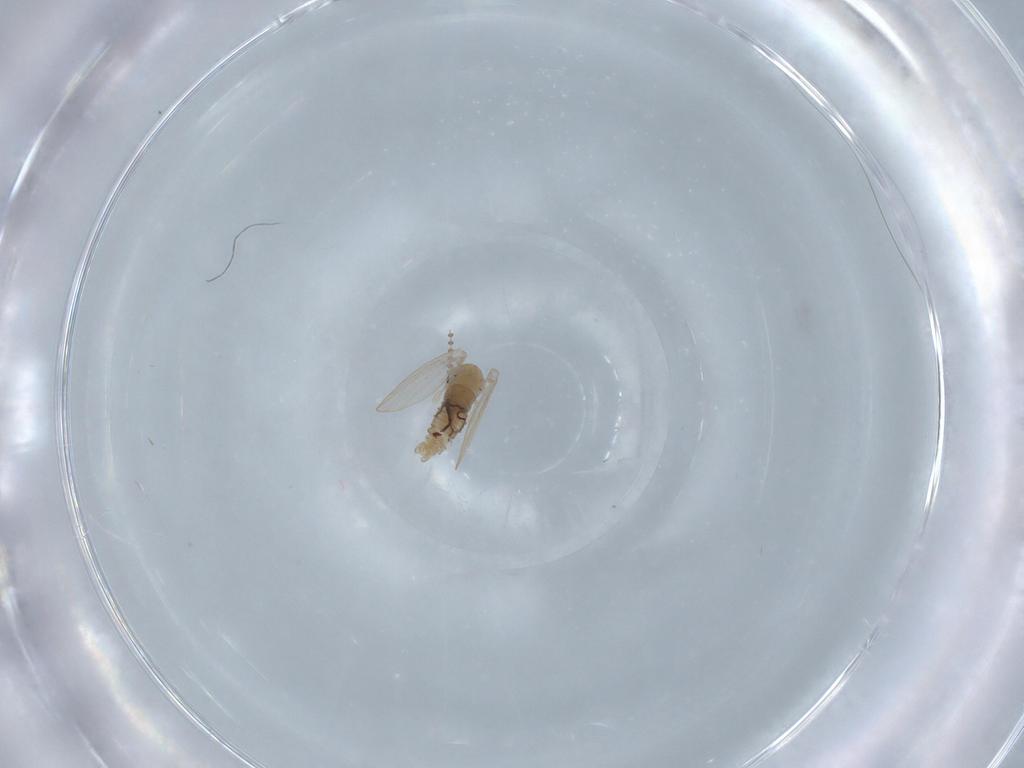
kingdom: Animalia
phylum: Arthropoda
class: Insecta
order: Diptera
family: Psychodidae
